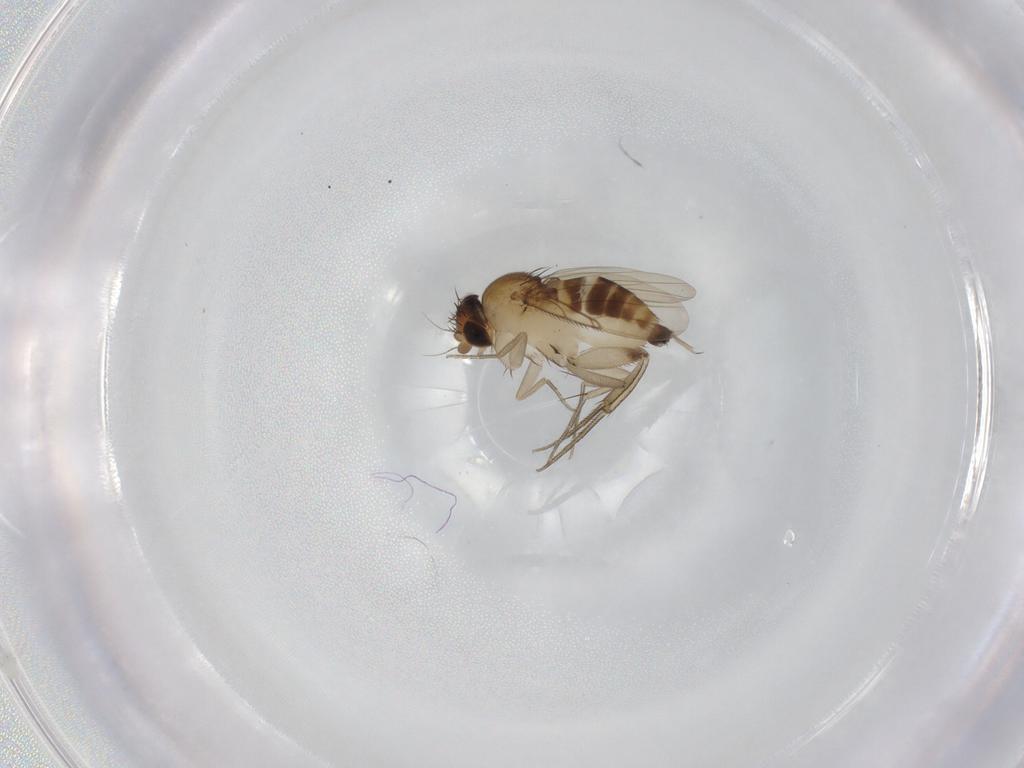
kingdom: Animalia
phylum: Arthropoda
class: Insecta
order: Diptera
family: Phoridae
